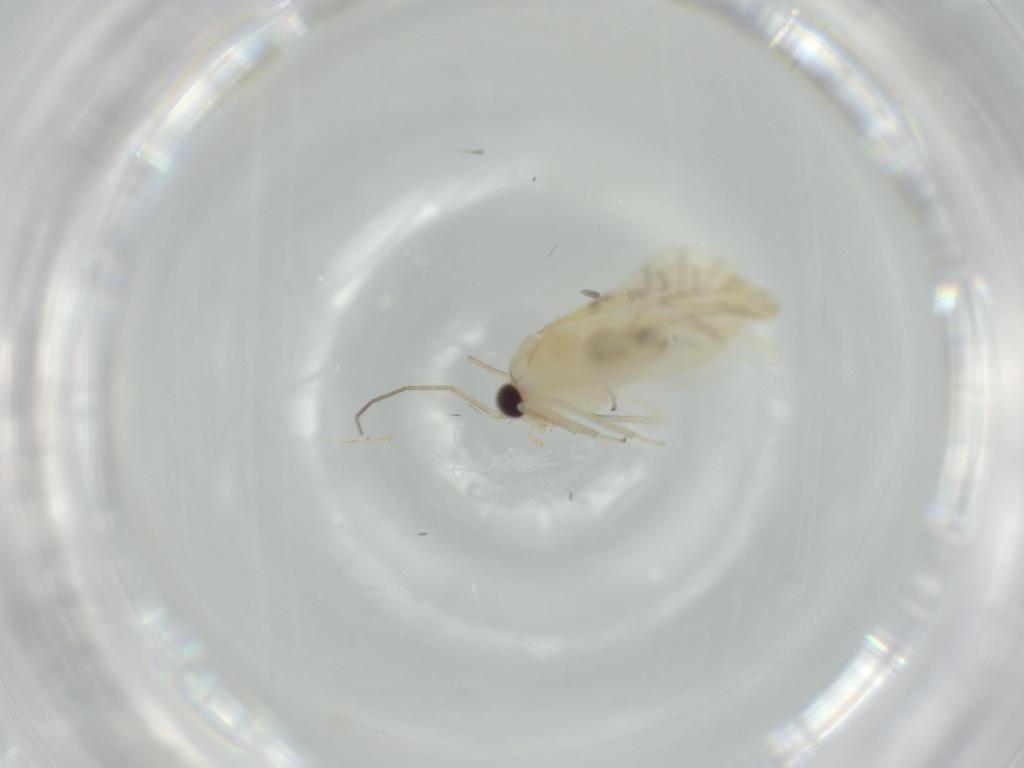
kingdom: Animalia
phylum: Arthropoda
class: Insecta
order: Psocodea
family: Caeciliusidae
